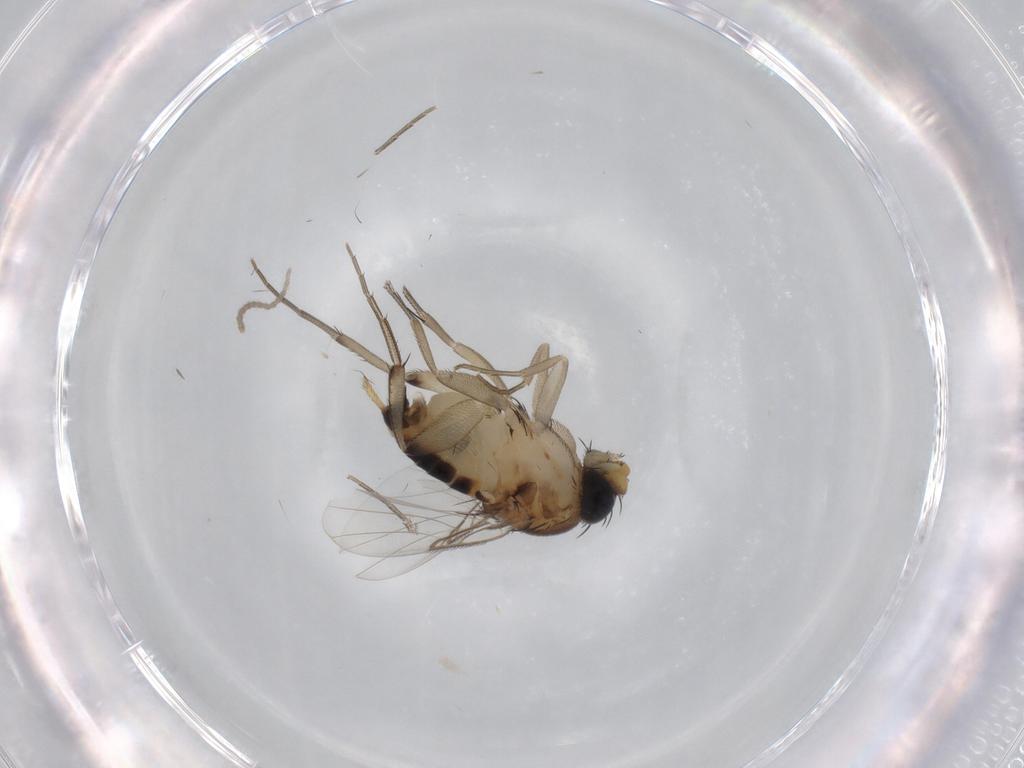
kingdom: Animalia
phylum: Arthropoda
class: Insecta
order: Diptera
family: Phoridae
